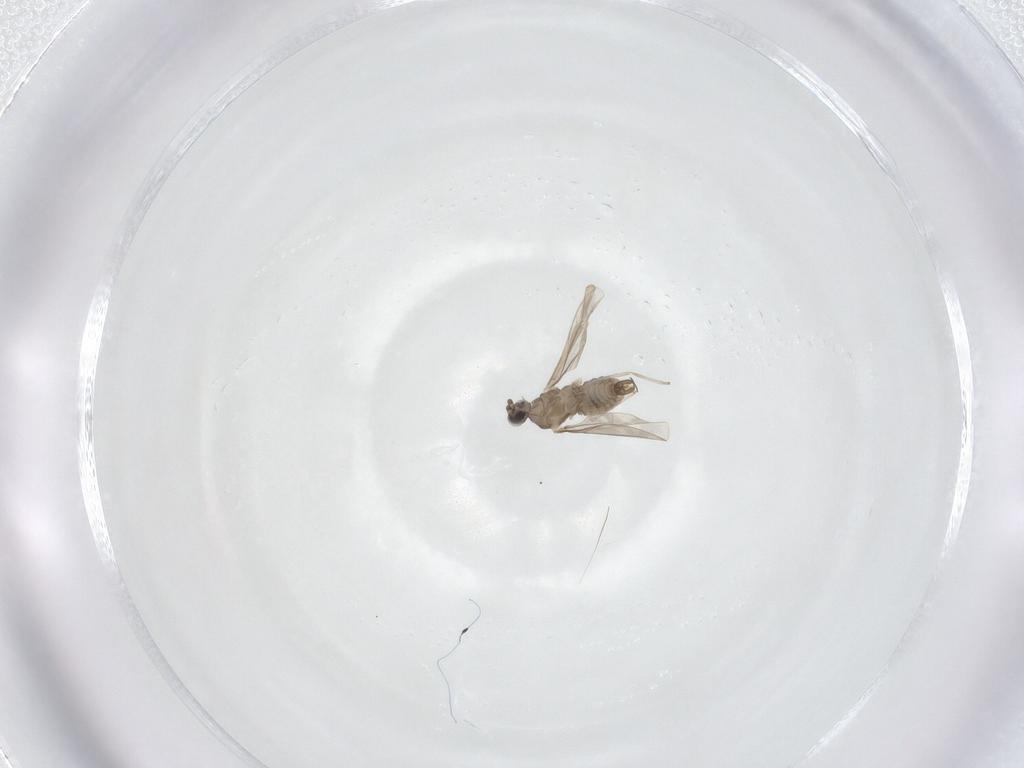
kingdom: Animalia
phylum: Arthropoda
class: Insecta
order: Diptera
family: Cecidomyiidae
